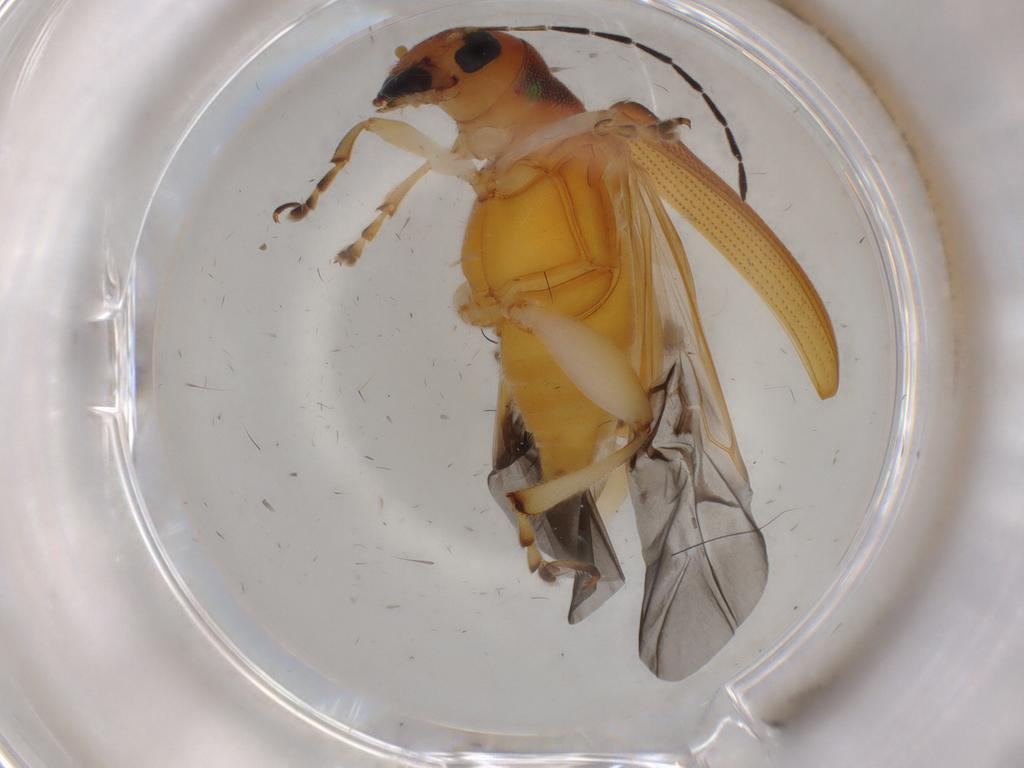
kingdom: Animalia
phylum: Arthropoda
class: Insecta
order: Coleoptera
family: Chrysomelidae
